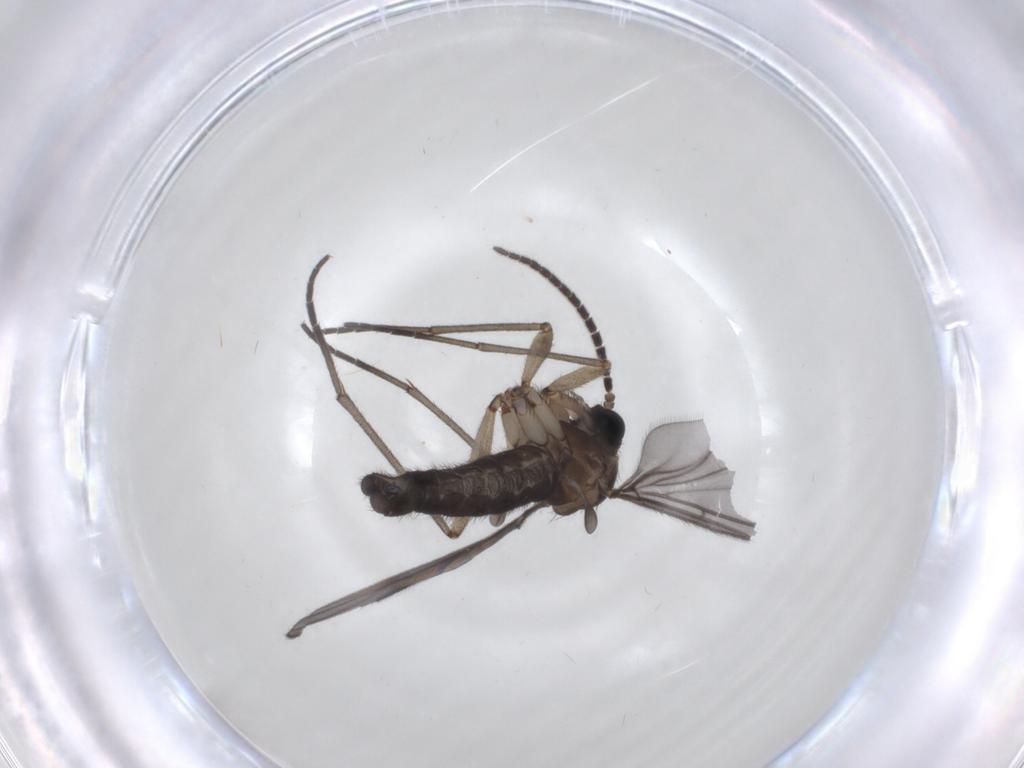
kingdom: Animalia
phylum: Arthropoda
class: Insecta
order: Diptera
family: Sciaridae
